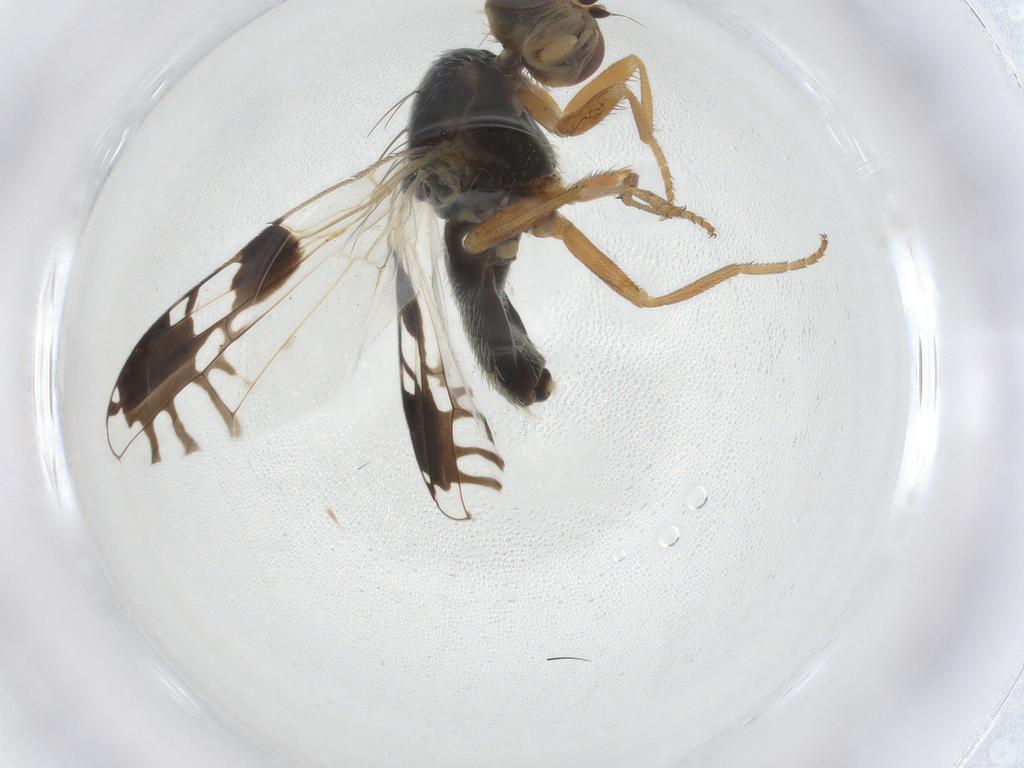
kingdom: Animalia
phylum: Arthropoda
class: Insecta
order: Diptera
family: Tephritidae
